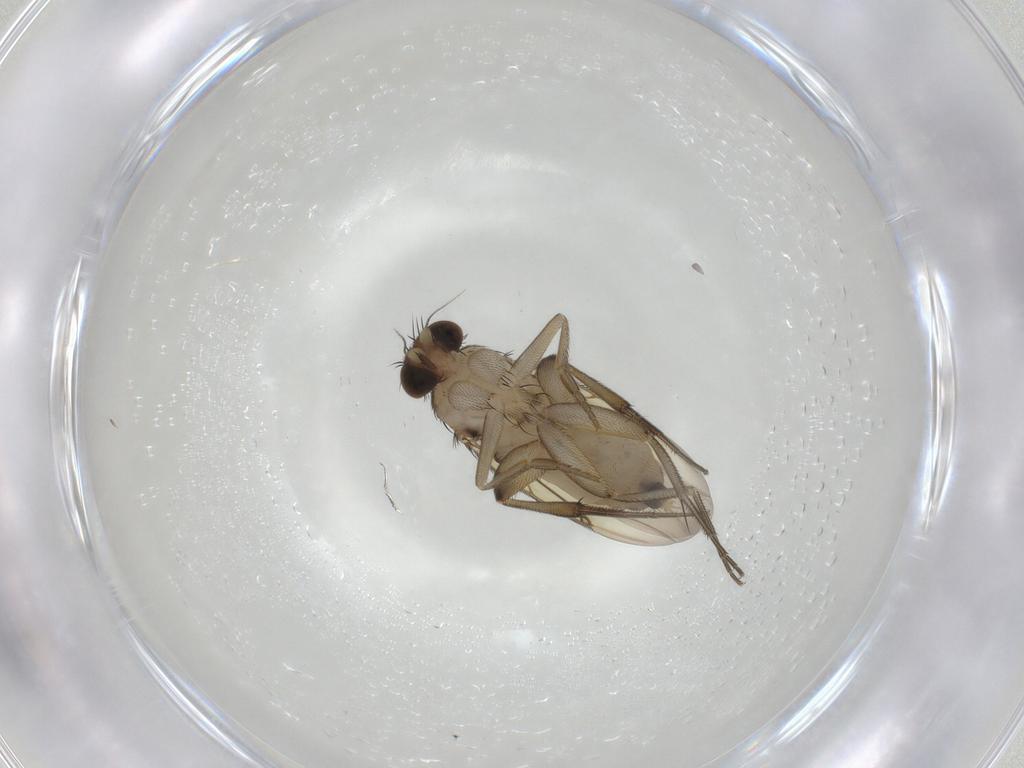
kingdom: Animalia
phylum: Arthropoda
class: Insecta
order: Diptera
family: Phoridae
